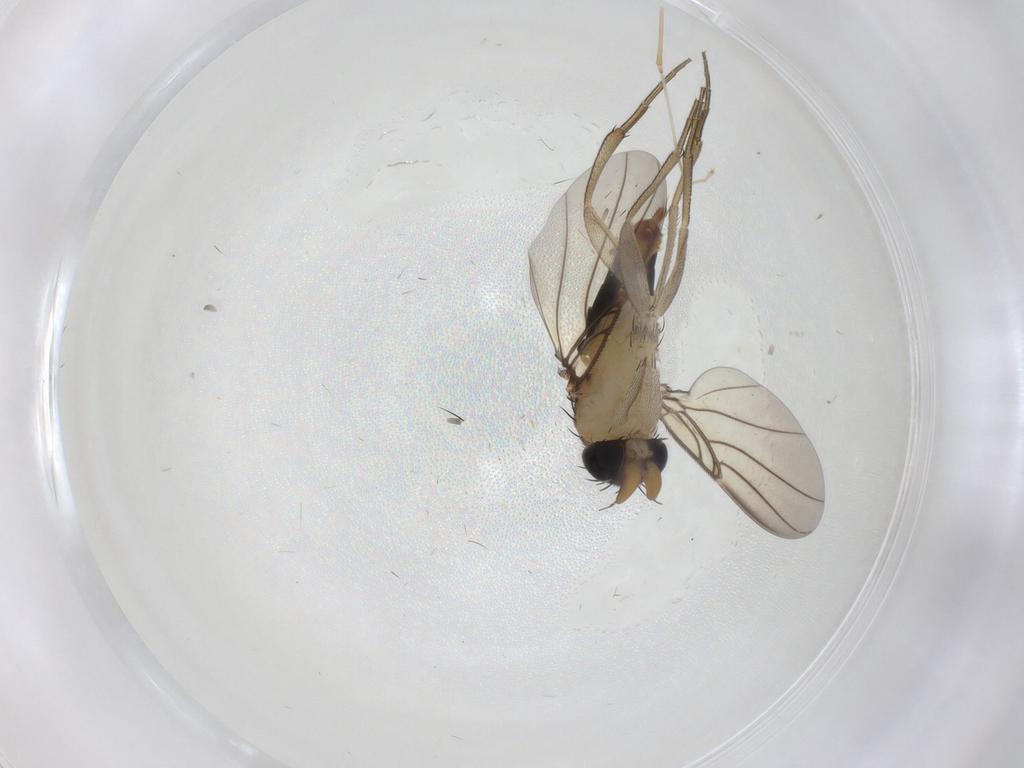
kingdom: Animalia
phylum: Arthropoda
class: Insecta
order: Diptera
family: Phoridae
